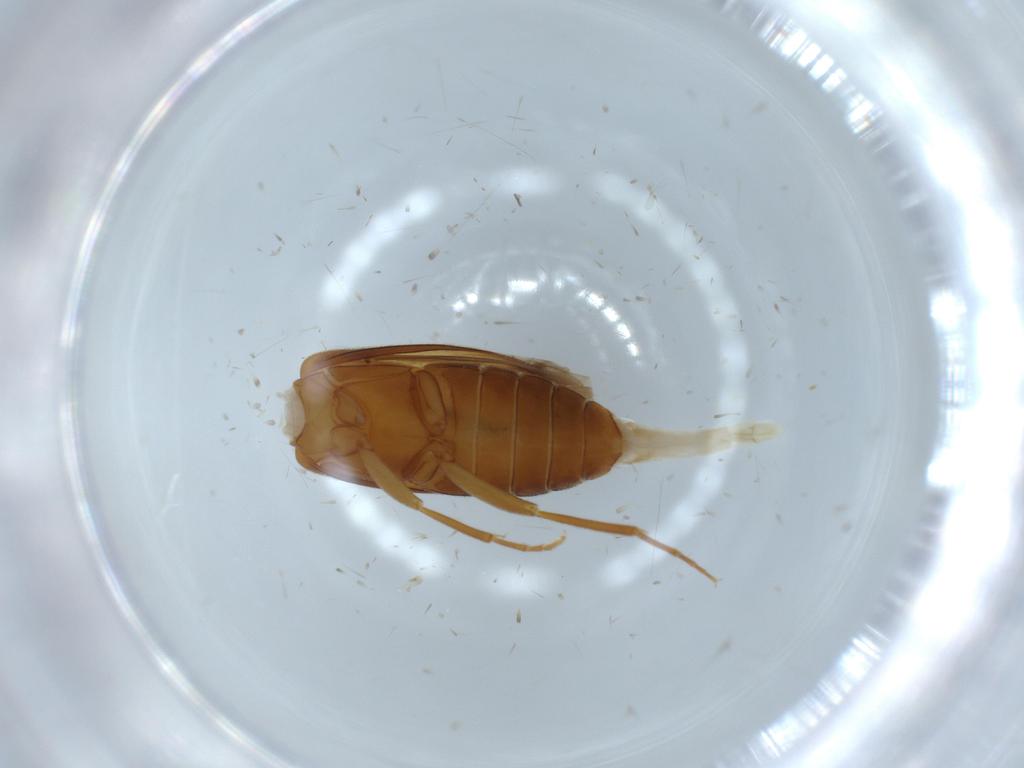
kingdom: Animalia
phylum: Arthropoda
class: Insecta
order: Coleoptera
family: Scraptiidae
